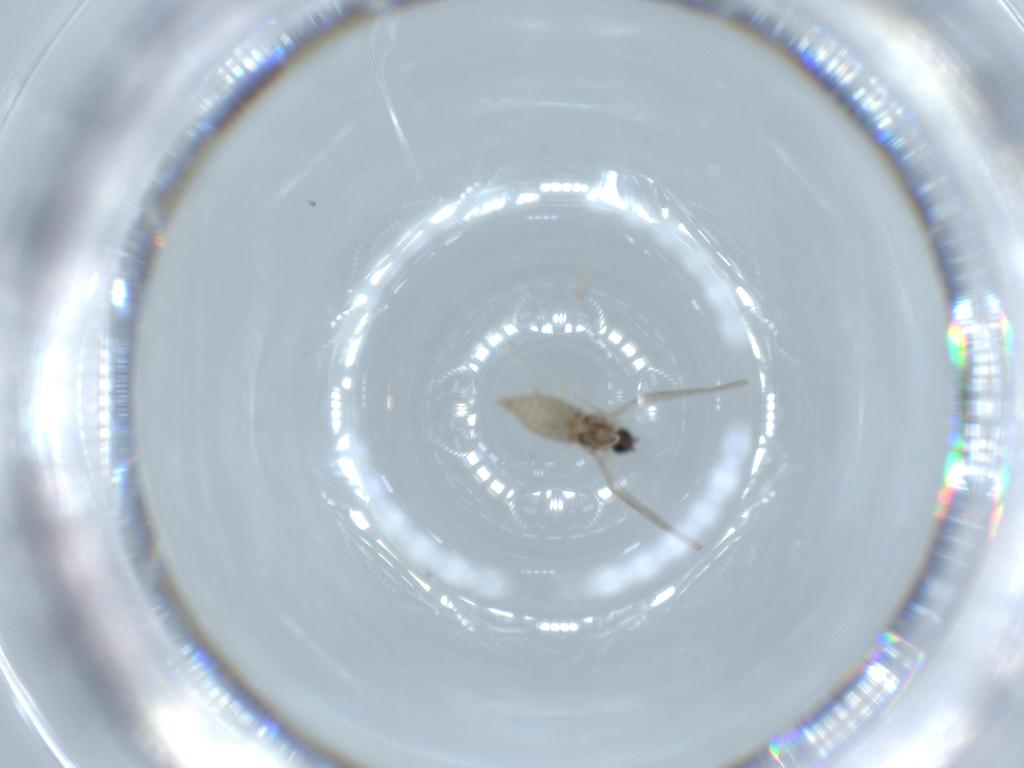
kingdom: Animalia
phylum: Arthropoda
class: Insecta
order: Diptera
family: Cecidomyiidae
